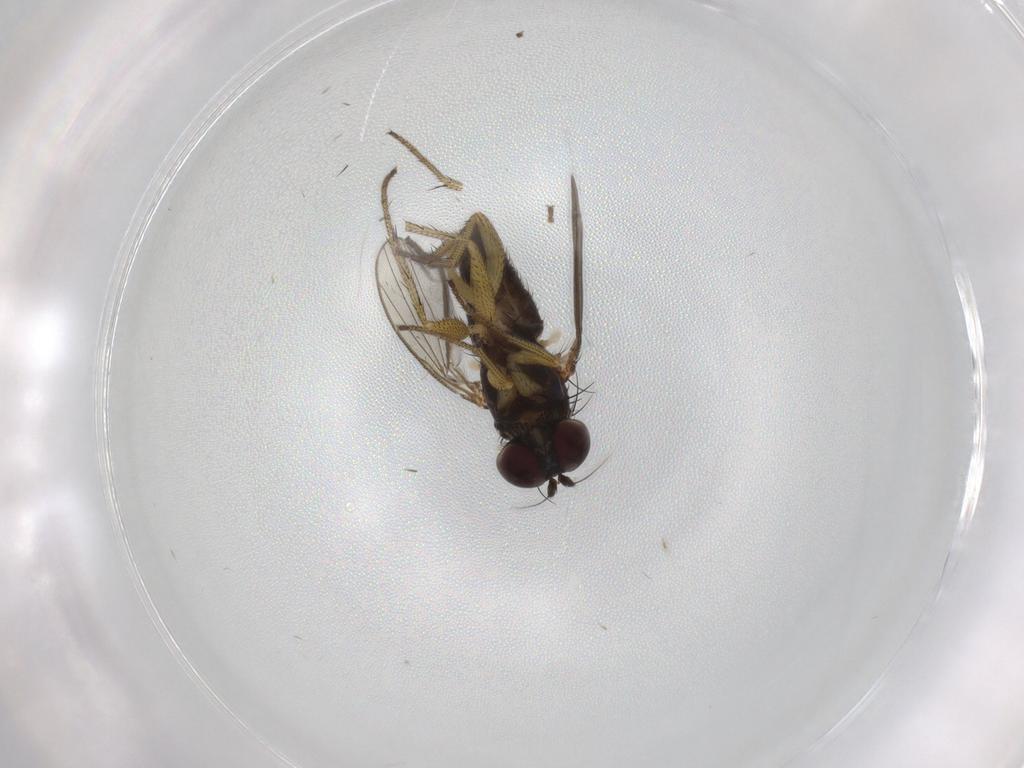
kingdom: Animalia
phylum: Arthropoda
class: Insecta
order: Diptera
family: Dolichopodidae
